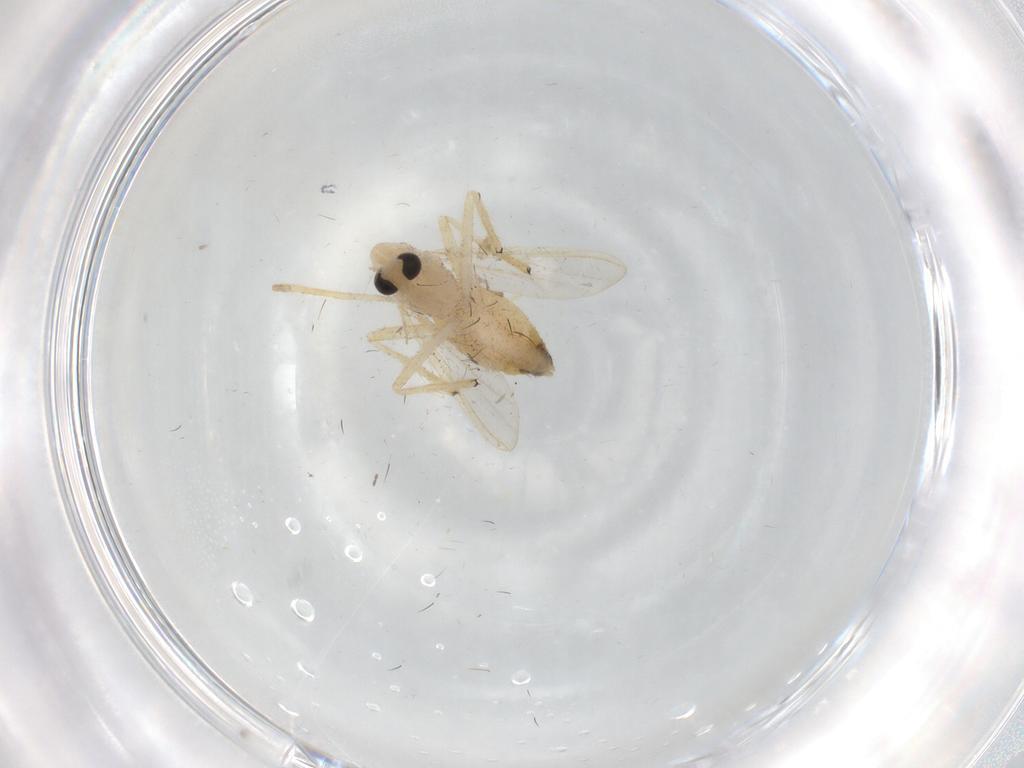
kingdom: Animalia
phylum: Arthropoda
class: Insecta
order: Diptera
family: Chironomidae
